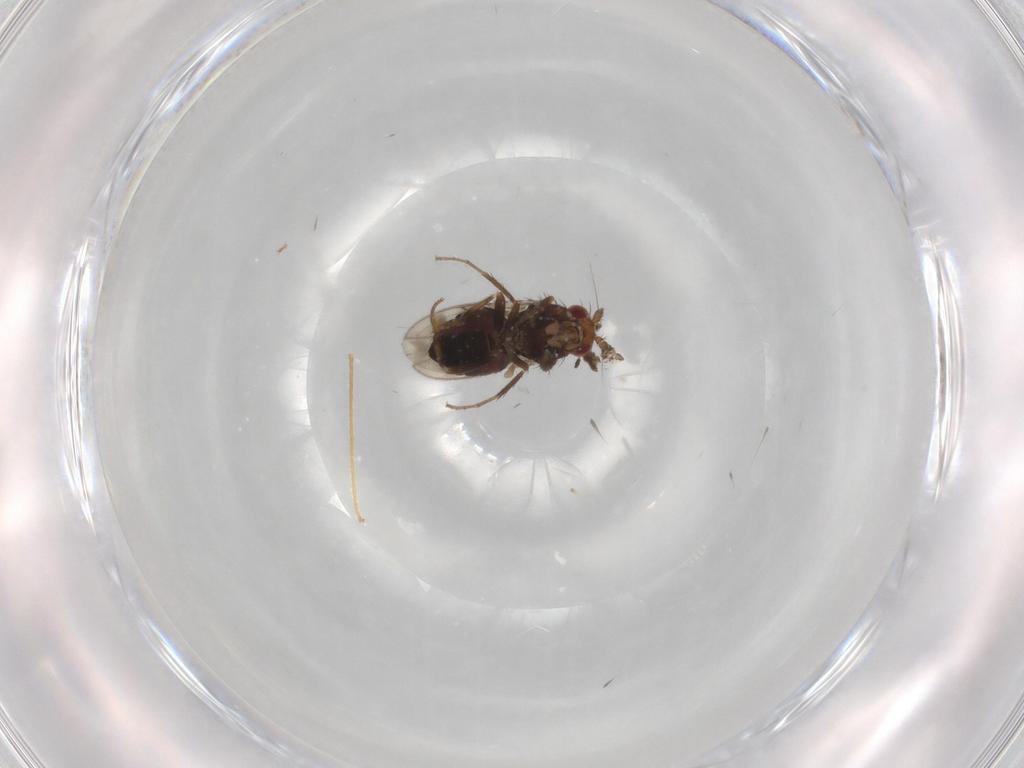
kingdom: Animalia
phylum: Arthropoda
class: Insecta
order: Diptera
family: Sphaeroceridae
